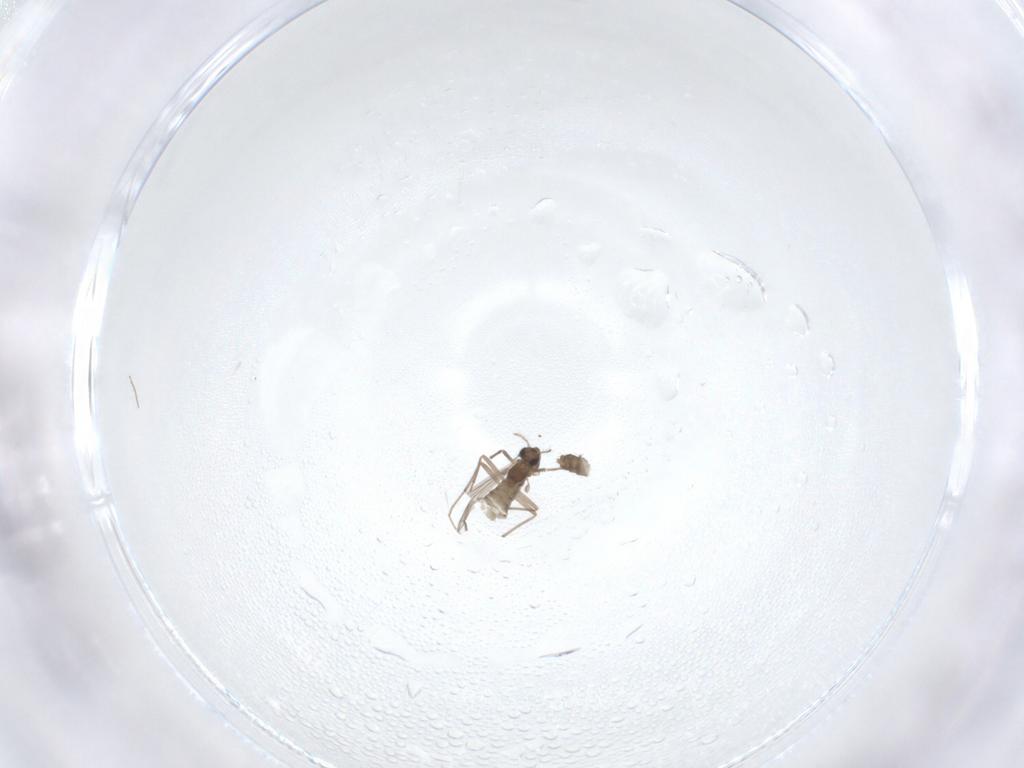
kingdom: Animalia
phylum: Arthropoda
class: Insecta
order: Diptera
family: Chironomidae
